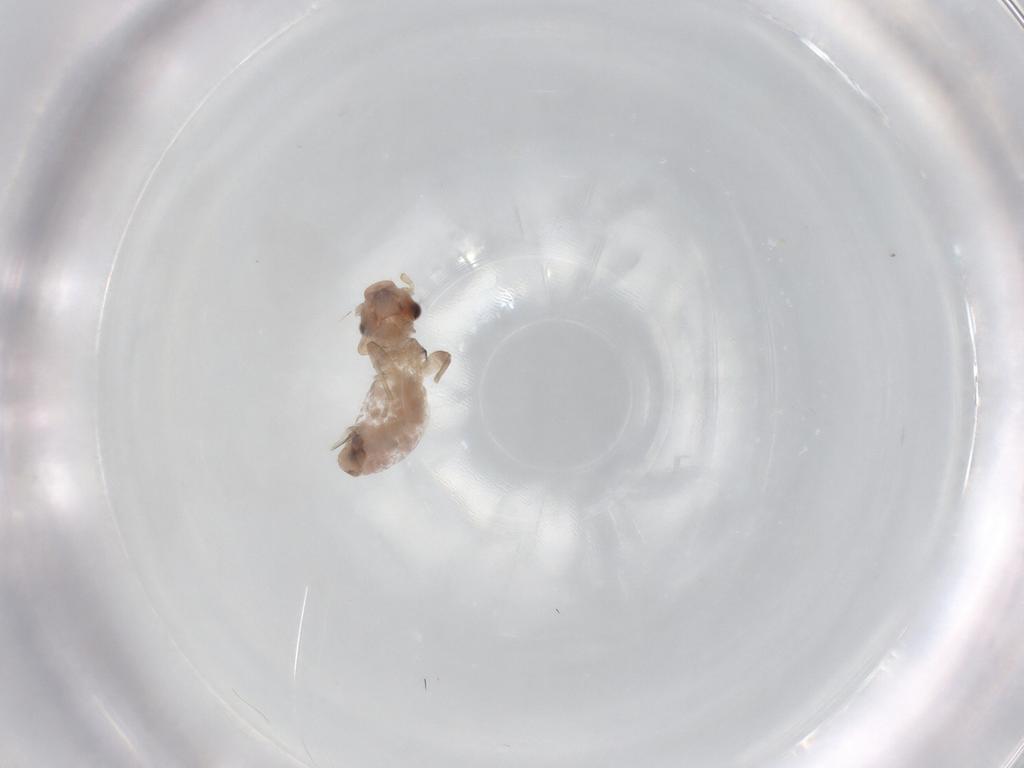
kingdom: Animalia
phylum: Arthropoda
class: Insecta
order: Psocodea
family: Trogiidae
